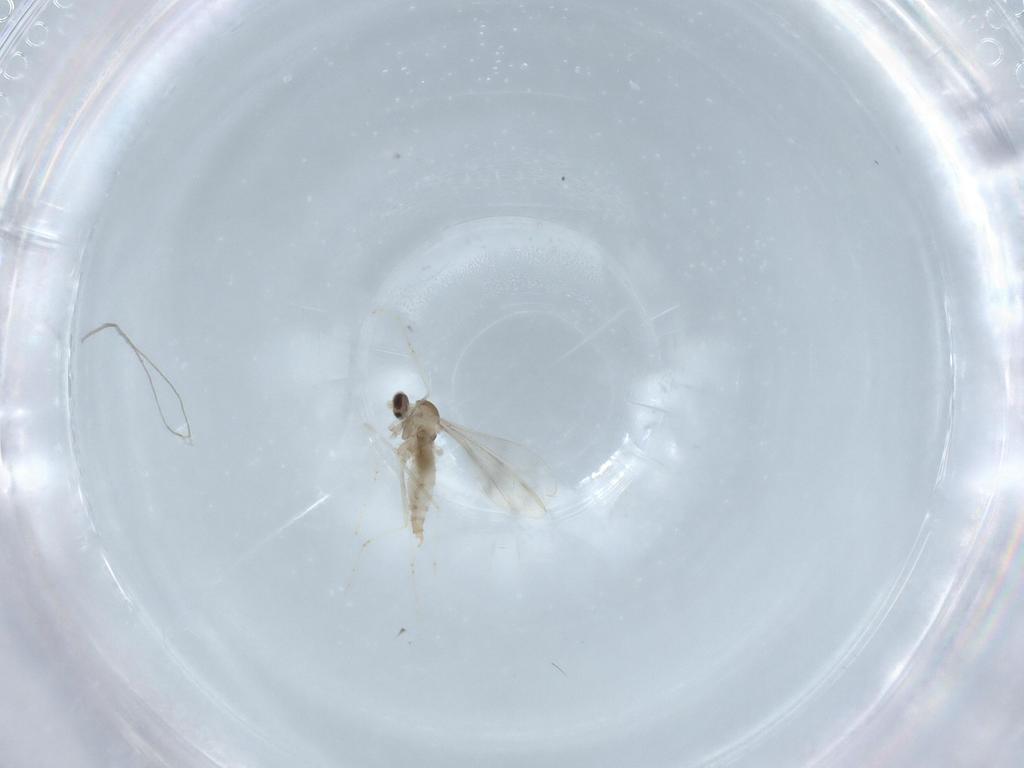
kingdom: Animalia
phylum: Arthropoda
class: Insecta
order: Diptera
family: Cecidomyiidae
